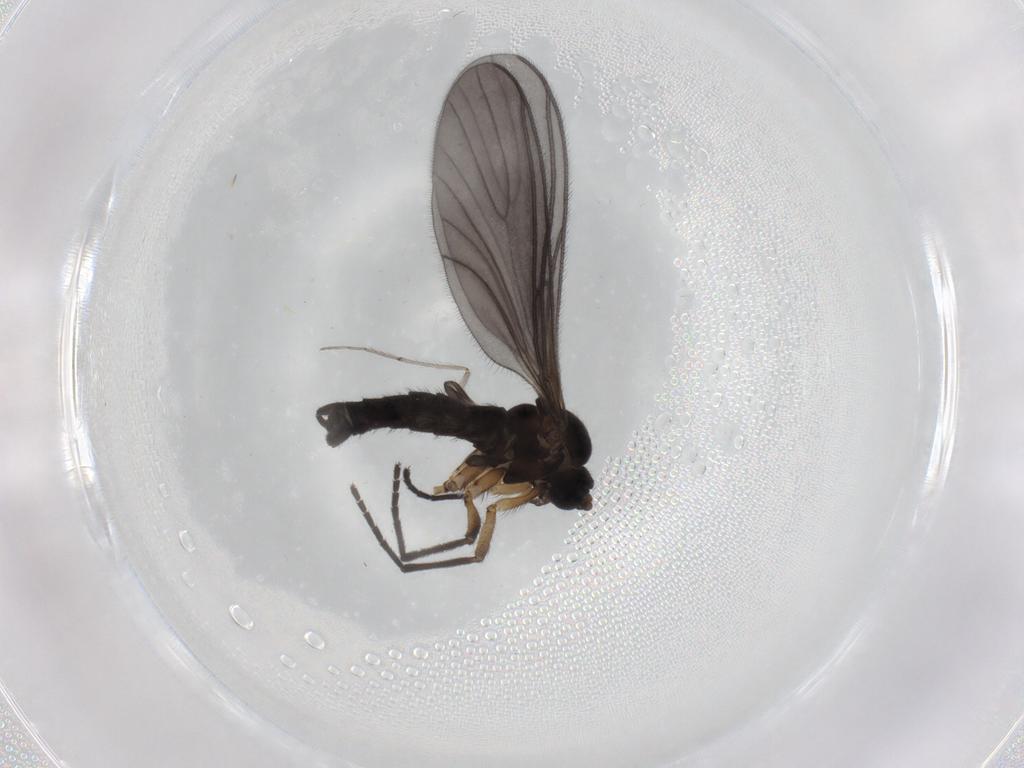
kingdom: Animalia
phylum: Arthropoda
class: Insecta
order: Diptera
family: Sciaridae
